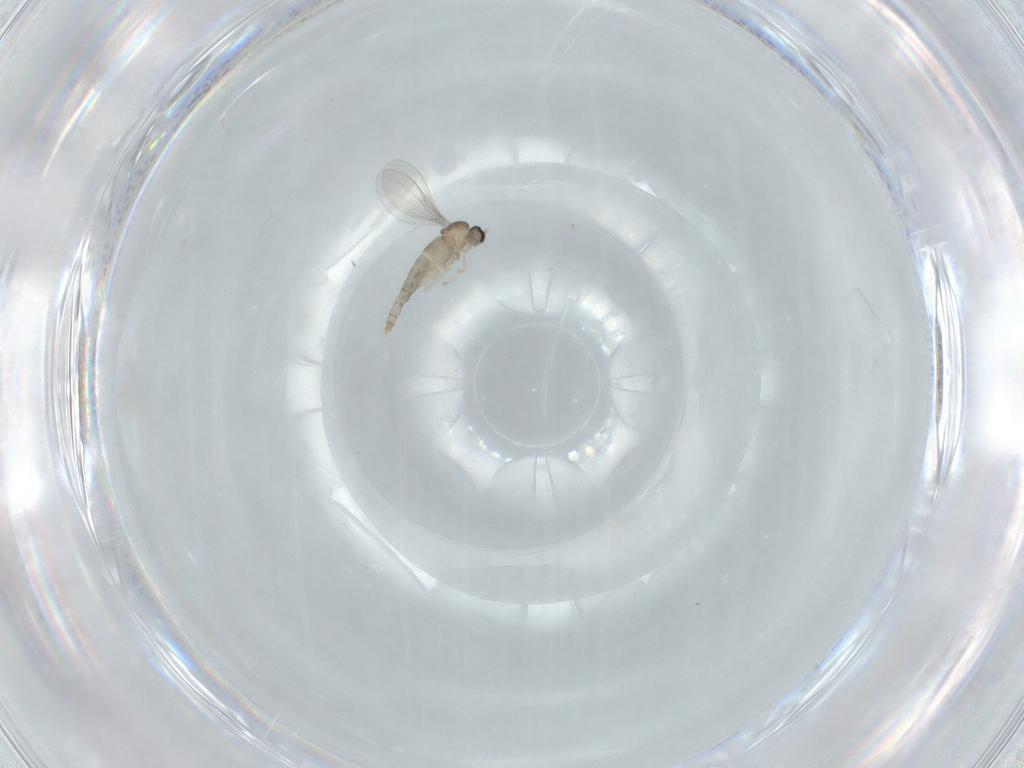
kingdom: Animalia
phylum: Arthropoda
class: Insecta
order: Diptera
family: Cecidomyiidae
